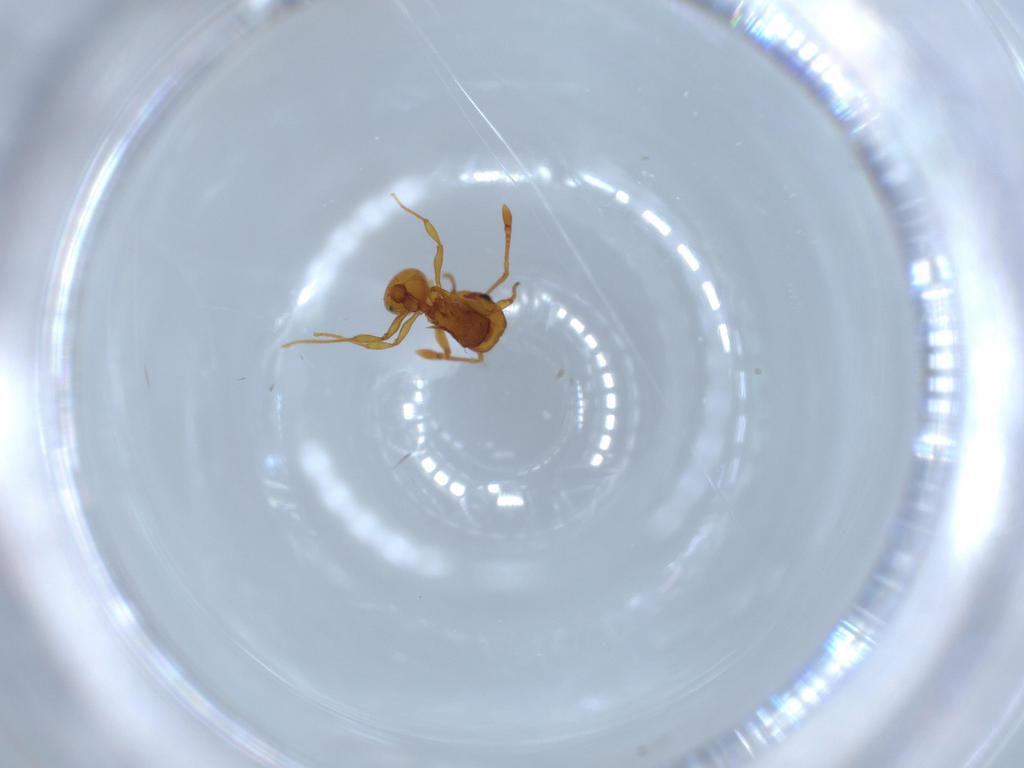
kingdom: Animalia
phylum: Arthropoda
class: Insecta
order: Hymenoptera
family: Formicidae
